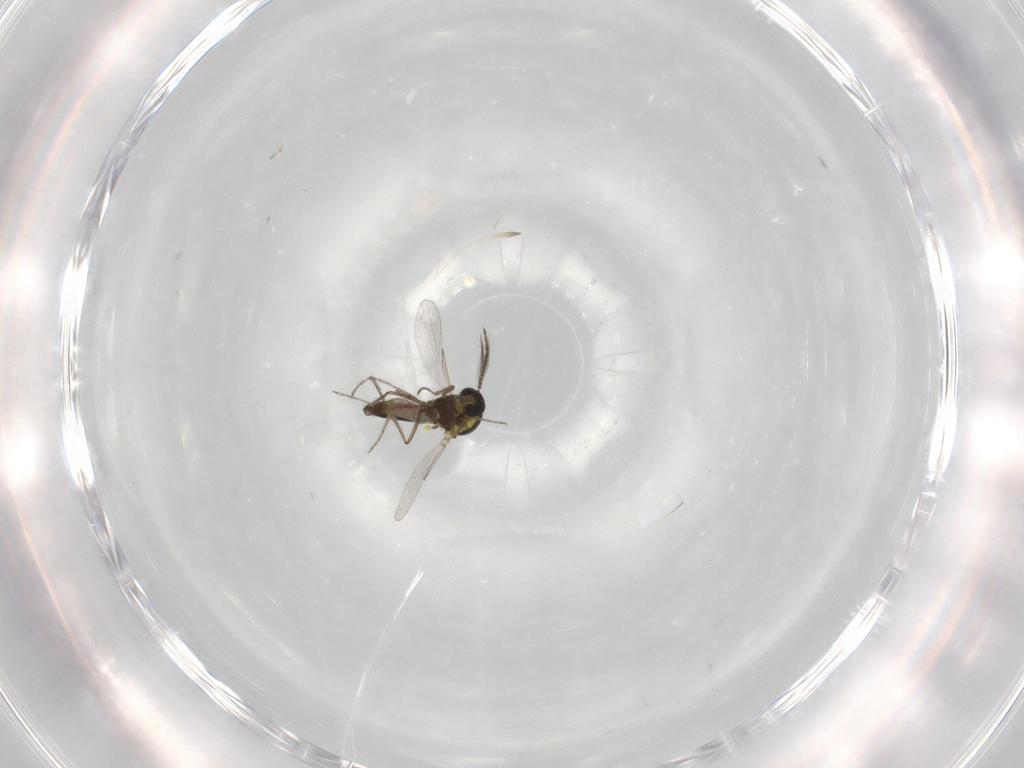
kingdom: Animalia
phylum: Arthropoda
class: Insecta
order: Diptera
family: Ceratopogonidae
